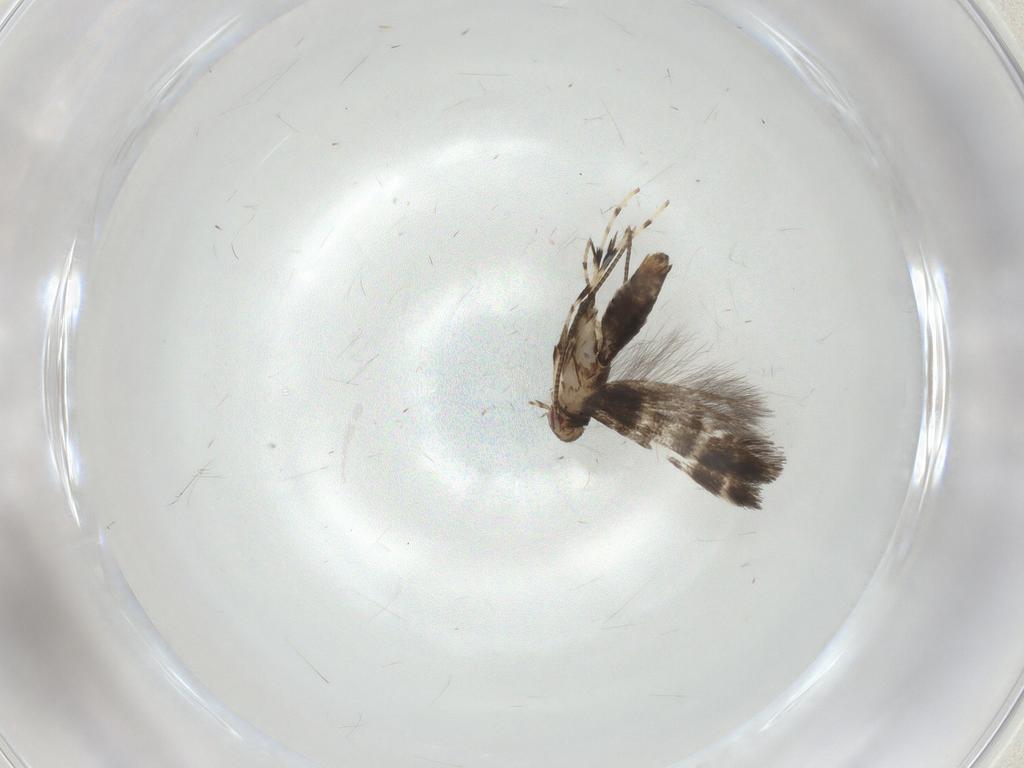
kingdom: Animalia
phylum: Arthropoda
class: Insecta
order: Lepidoptera
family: Gracillariidae
